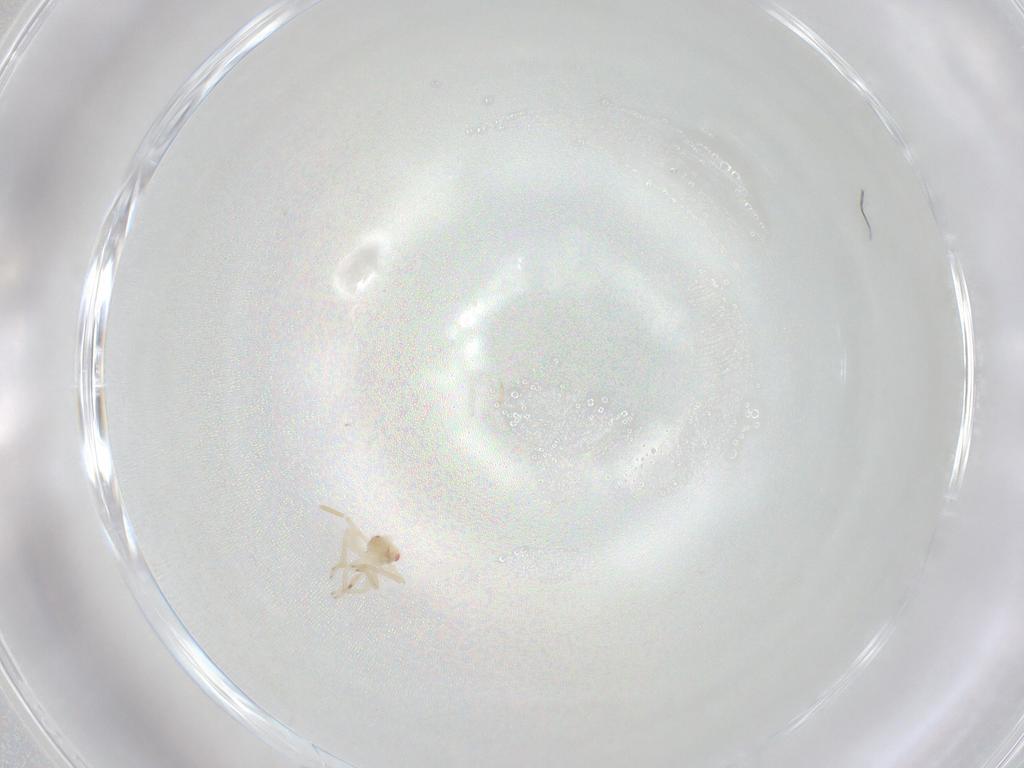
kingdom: Animalia
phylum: Arthropoda
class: Insecta
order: Hemiptera
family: Miridae
